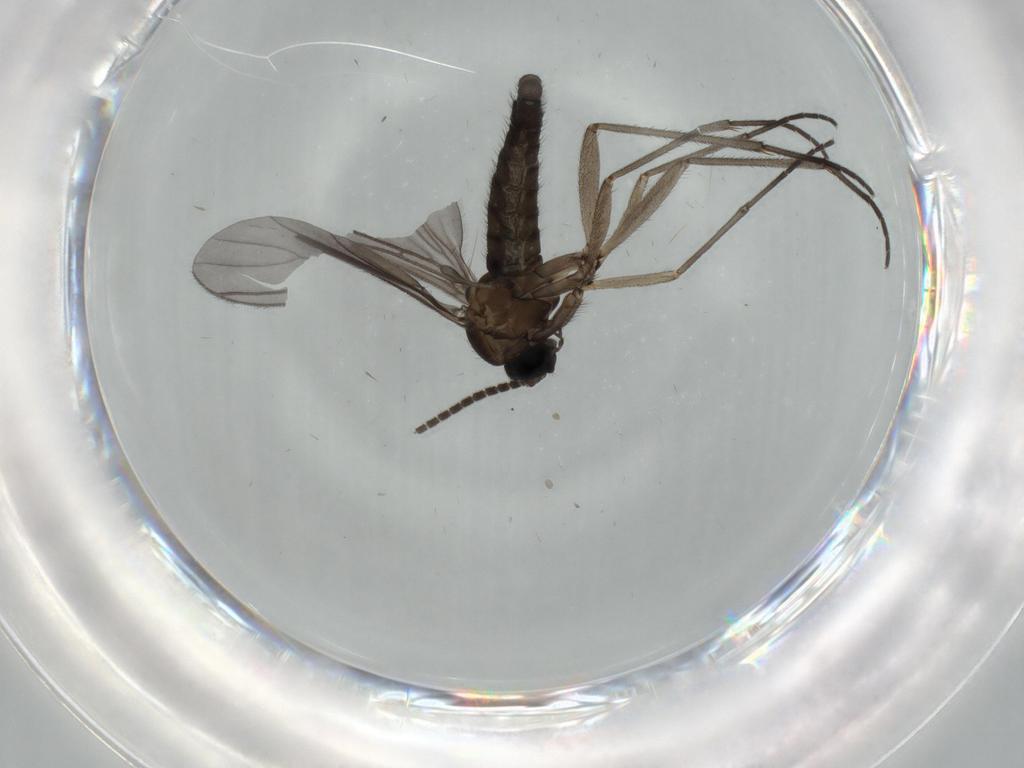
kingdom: Animalia
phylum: Arthropoda
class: Insecta
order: Diptera
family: Sciaridae
